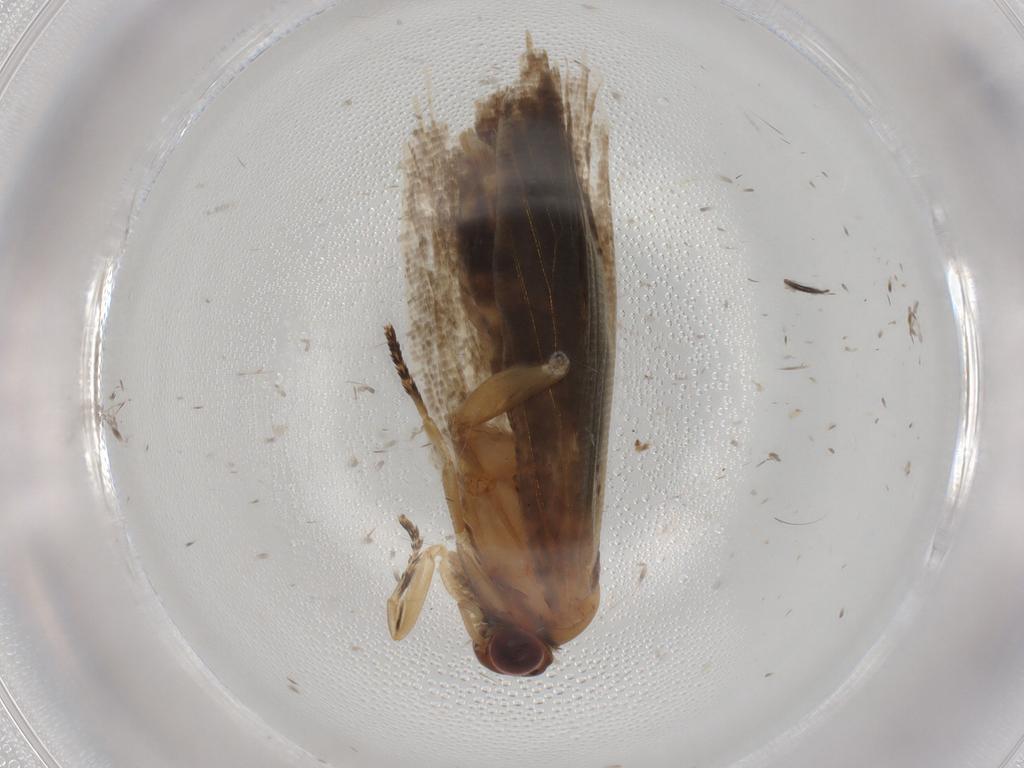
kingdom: Animalia
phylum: Arthropoda
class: Insecta
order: Lepidoptera
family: Tortricidae
